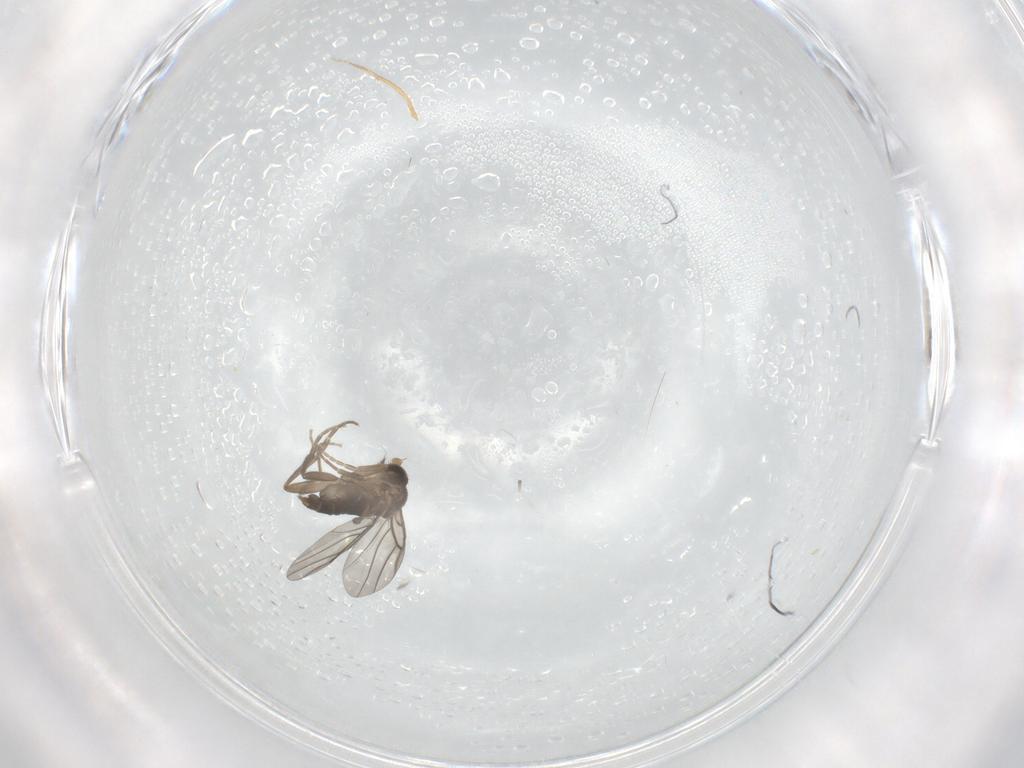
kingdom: Animalia
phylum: Arthropoda
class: Insecta
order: Diptera
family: Phoridae
